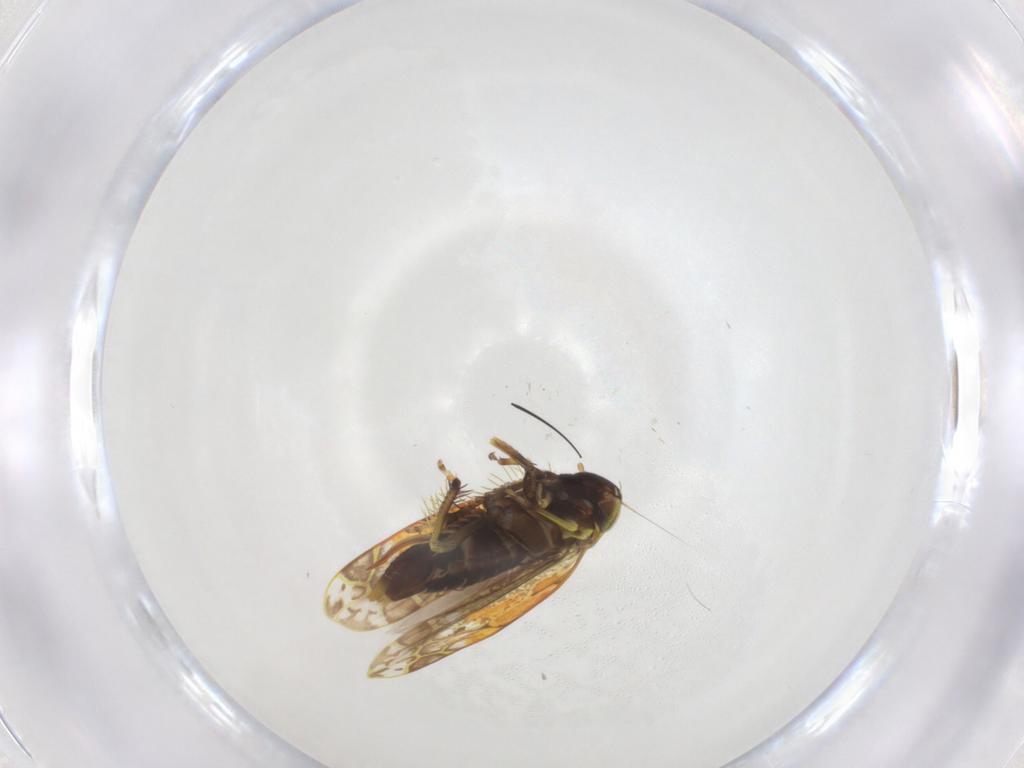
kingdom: Animalia
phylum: Arthropoda
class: Insecta
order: Hemiptera
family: Cicadellidae
